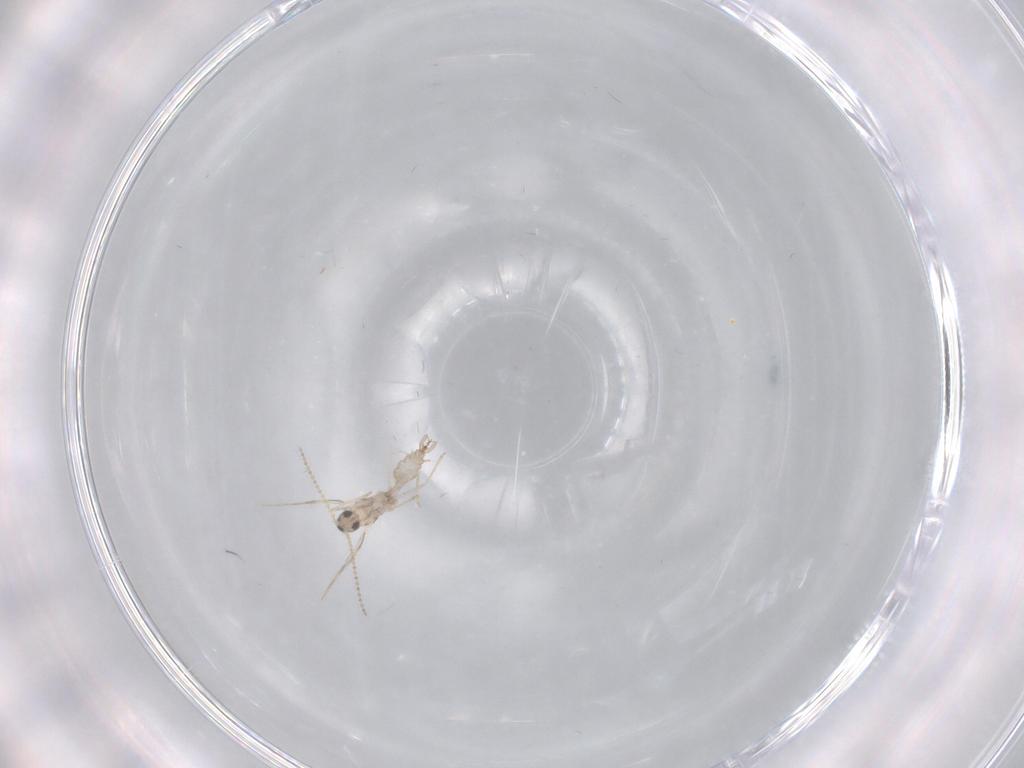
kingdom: Animalia
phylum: Arthropoda
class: Insecta
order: Diptera
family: Cecidomyiidae
